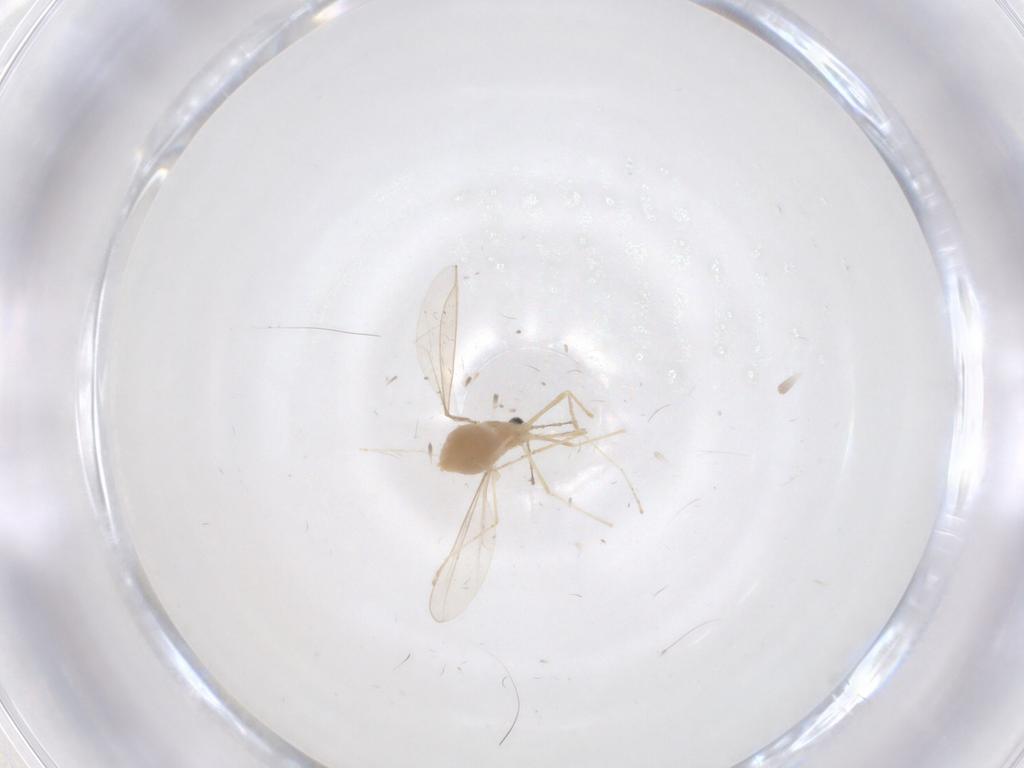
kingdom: Animalia
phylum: Arthropoda
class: Insecta
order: Diptera
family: Cecidomyiidae
